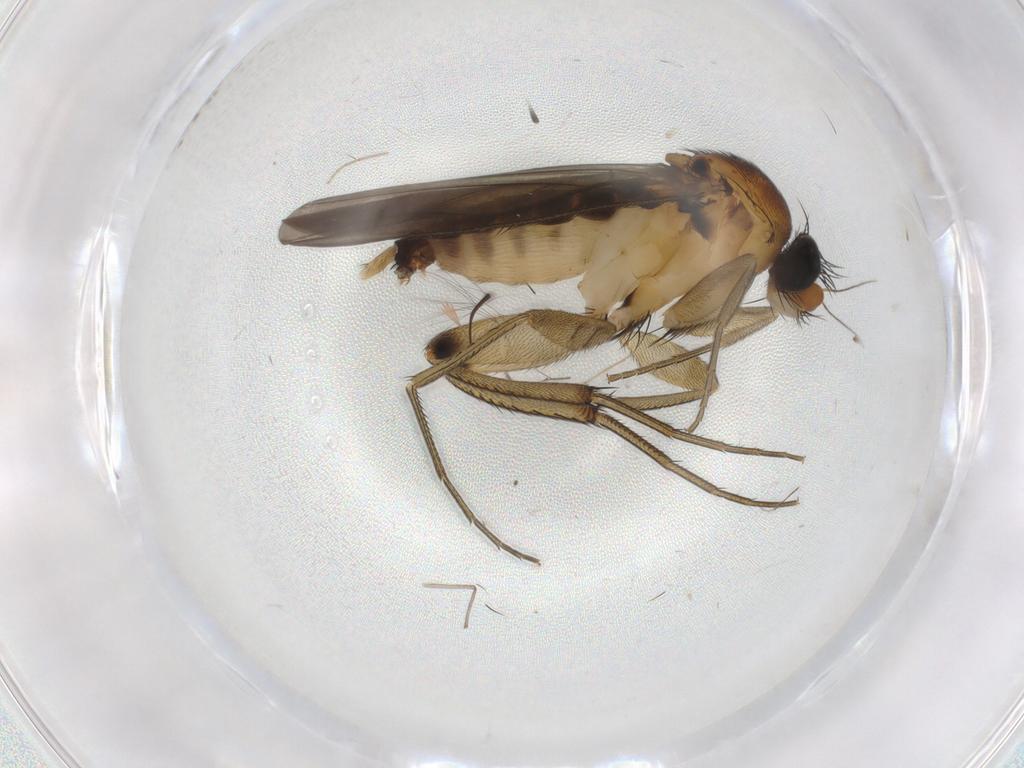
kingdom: Animalia
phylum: Arthropoda
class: Insecta
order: Diptera
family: Phoridae
